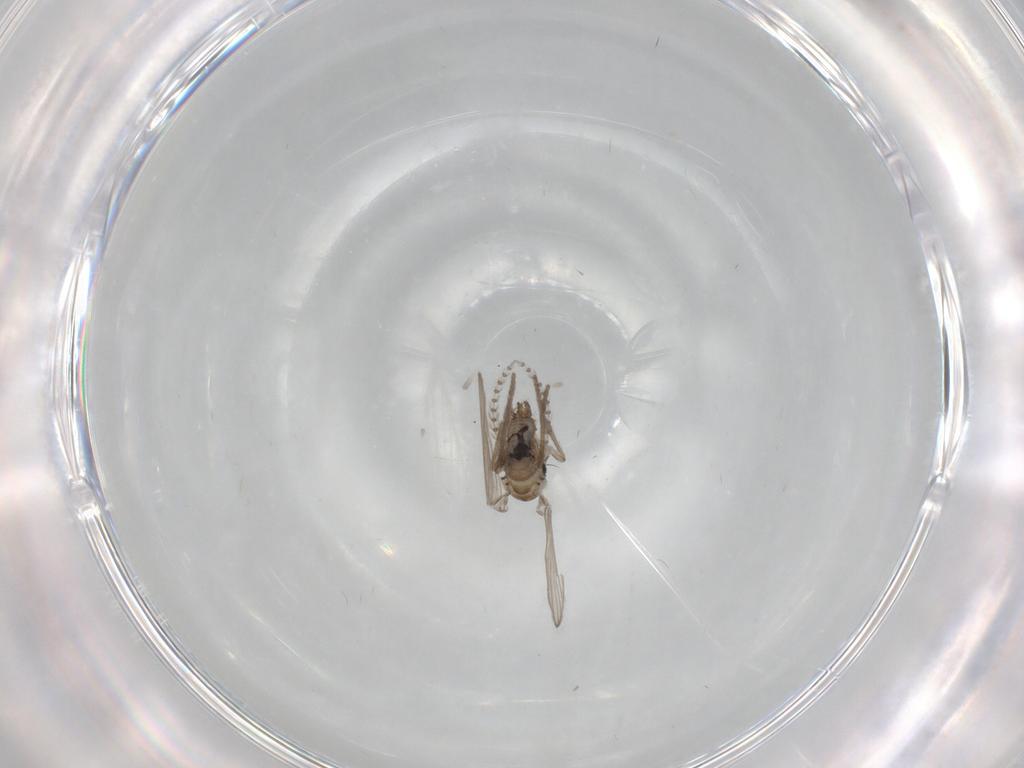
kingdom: Animalia
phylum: Arthropoda
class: Insecta
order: Diptera
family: Psychodidae
